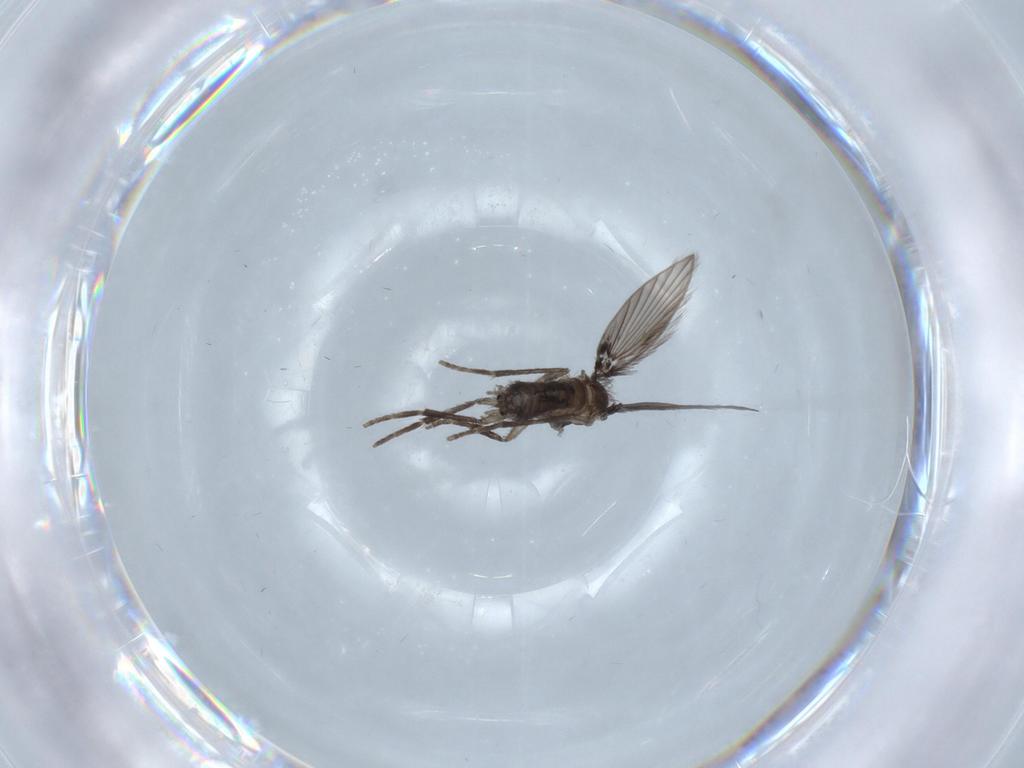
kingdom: Animalia
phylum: Arthropoda
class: Insecta
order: Diptera
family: Psychodidae
